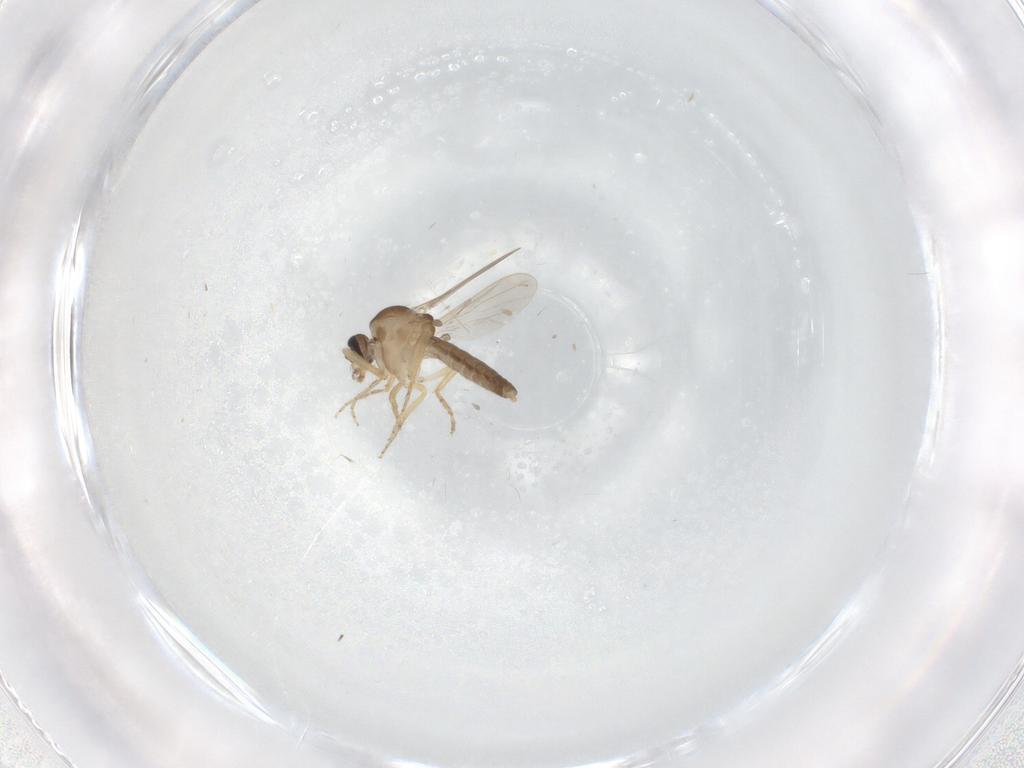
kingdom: Animalia
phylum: Arthropoda
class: Insecta
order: Diptera
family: Ceratopogonidae
